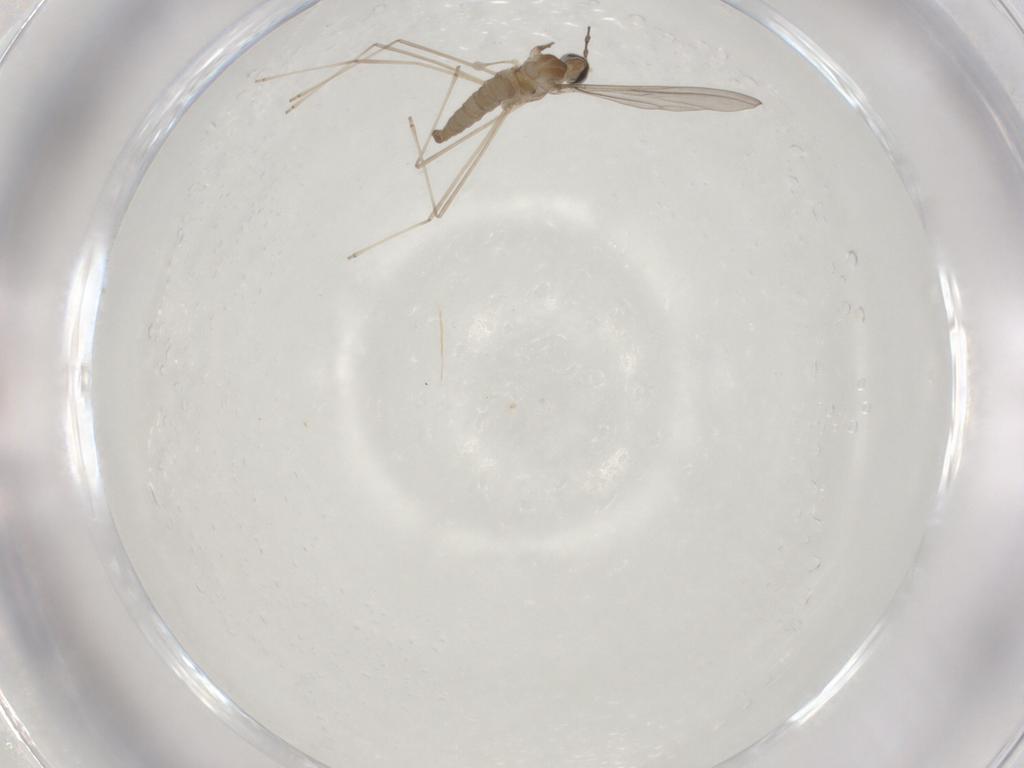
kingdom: Animalia
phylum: Arthropoda
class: Insecta
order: Diptera
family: Cecidomyiidae
